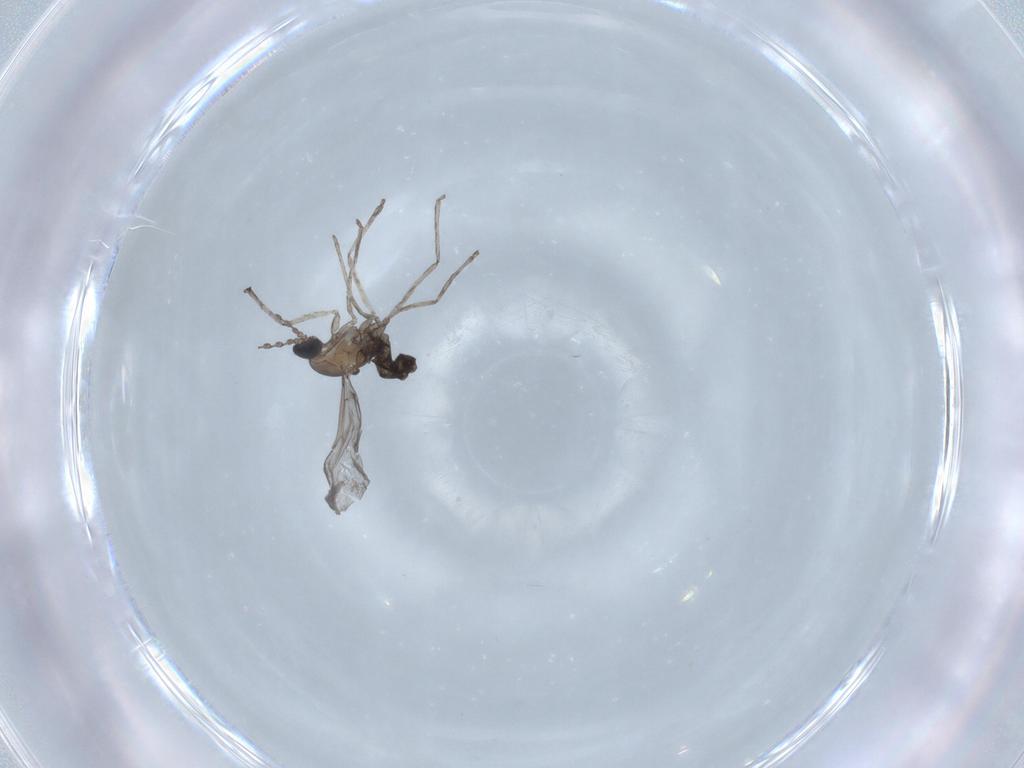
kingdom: Animalia
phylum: Arthropoda
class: Insecta
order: Diptera
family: Cecidomyiidae
